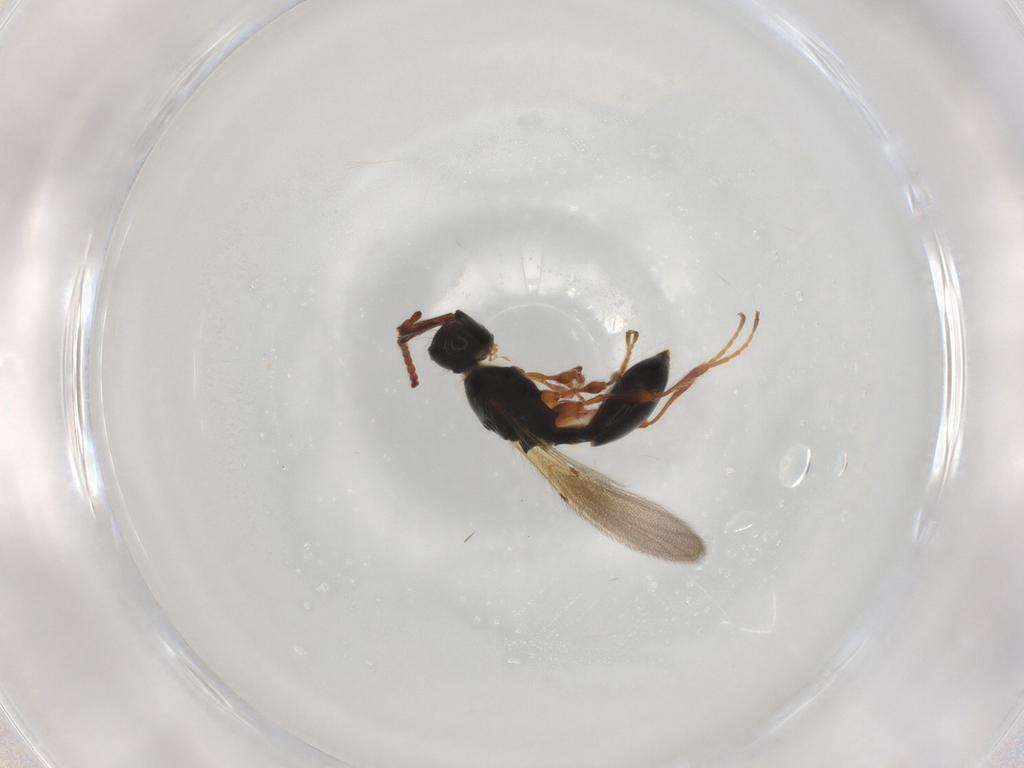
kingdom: Animalia
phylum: Arthropoda
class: Insecta
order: Hymenoptera
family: Diapriidae
